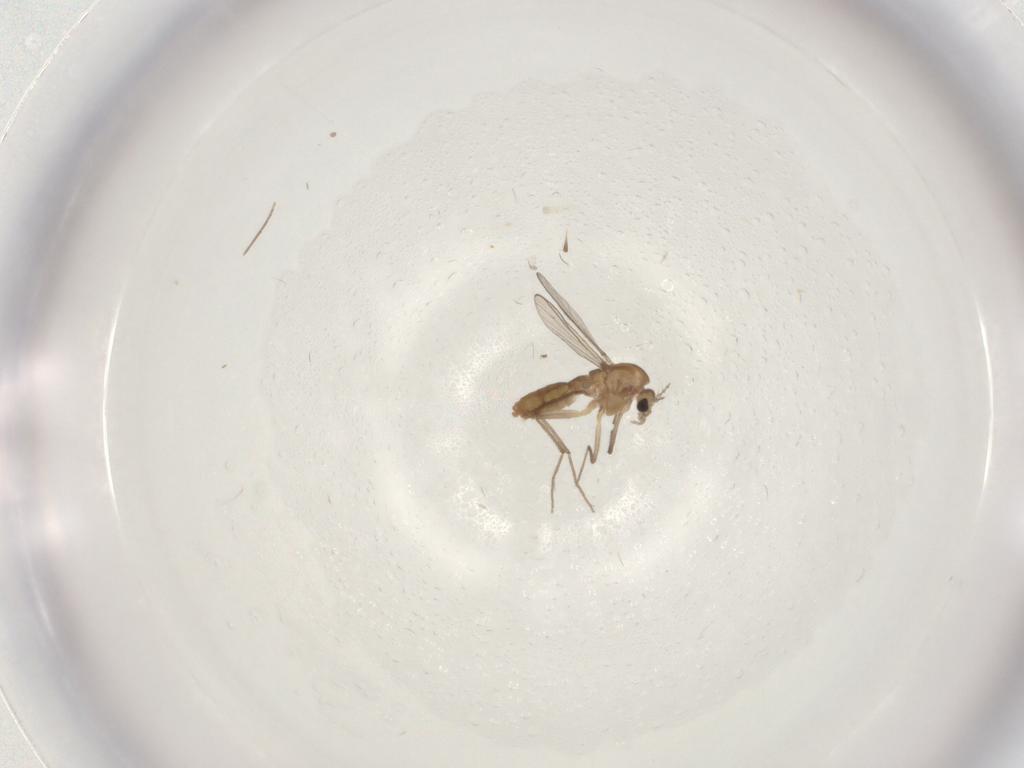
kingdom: Animalia
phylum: Arthropoda
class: Insecta
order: Diptera
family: Chironomidae
